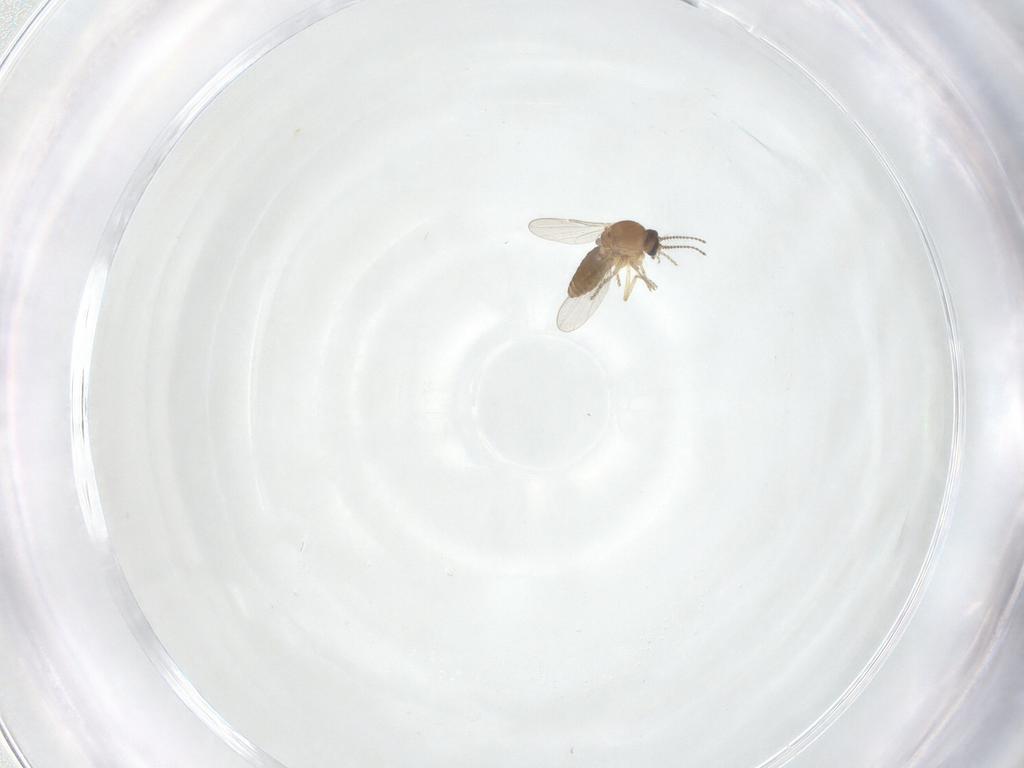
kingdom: Animalia
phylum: Arthropoda
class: Insecta
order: Diptera
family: Ceratopogonidae
